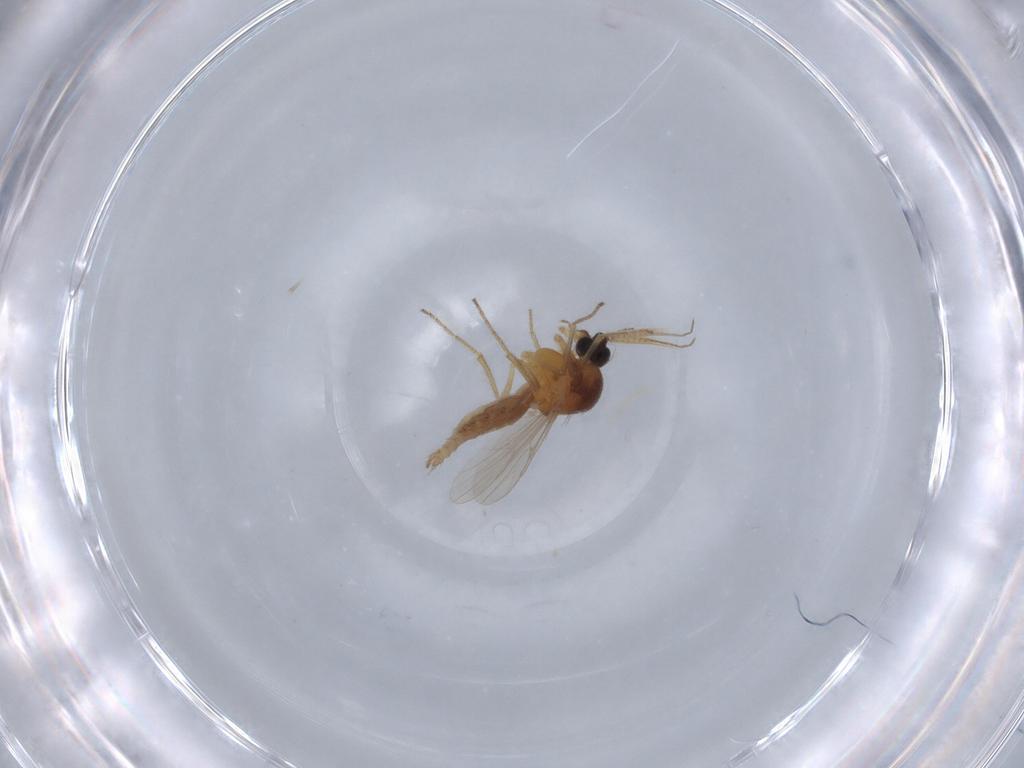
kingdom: Animalia
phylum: Arthropoda
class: Insecta
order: Diptera
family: Ceratopogonidae
